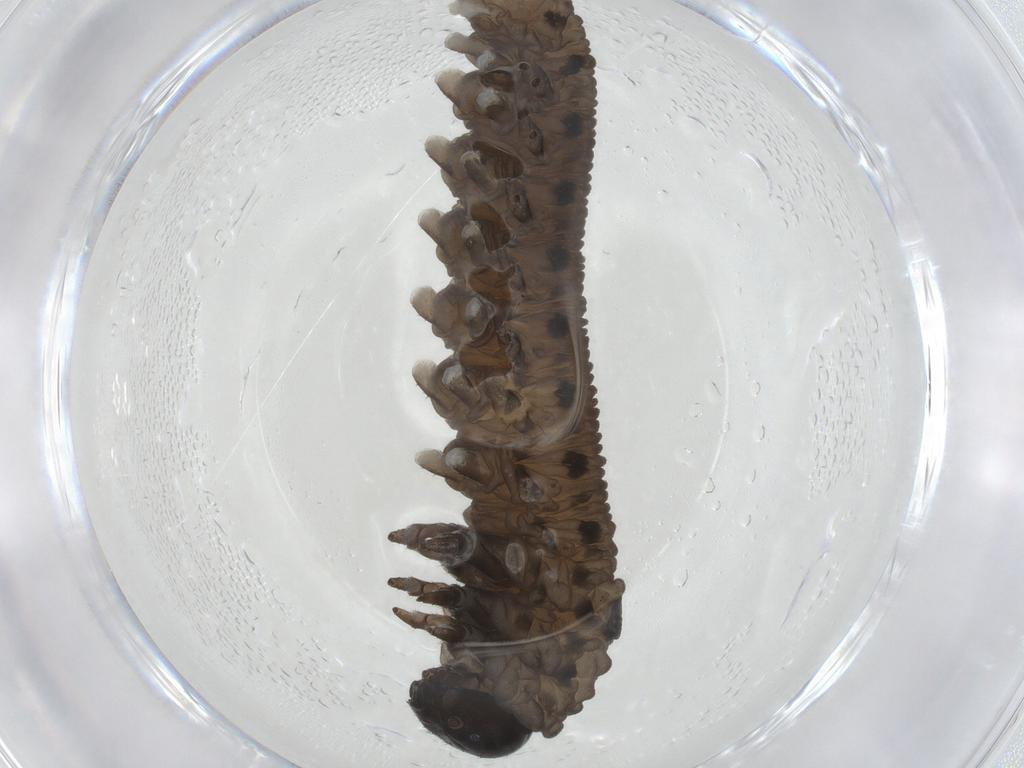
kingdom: Animalia
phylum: Arthropoda
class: Insecta
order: Hymenoptera
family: Tenthredinidae
